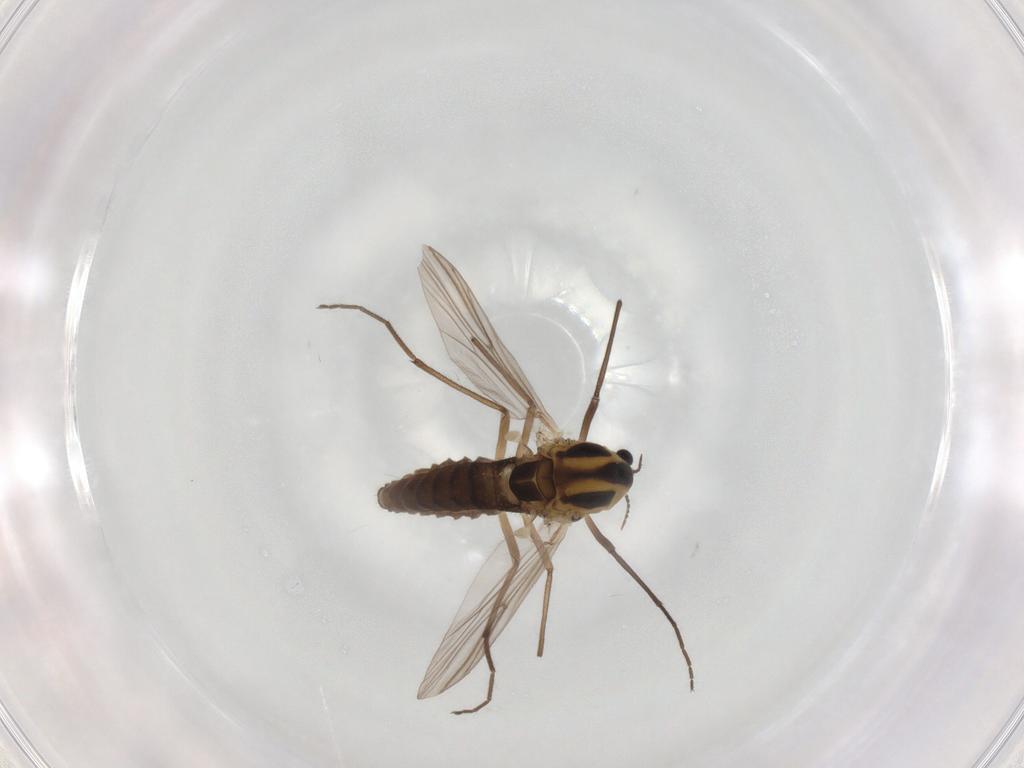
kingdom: Animalia
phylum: Arthropoda
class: Insecta
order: Diptera
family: Chironomidae
